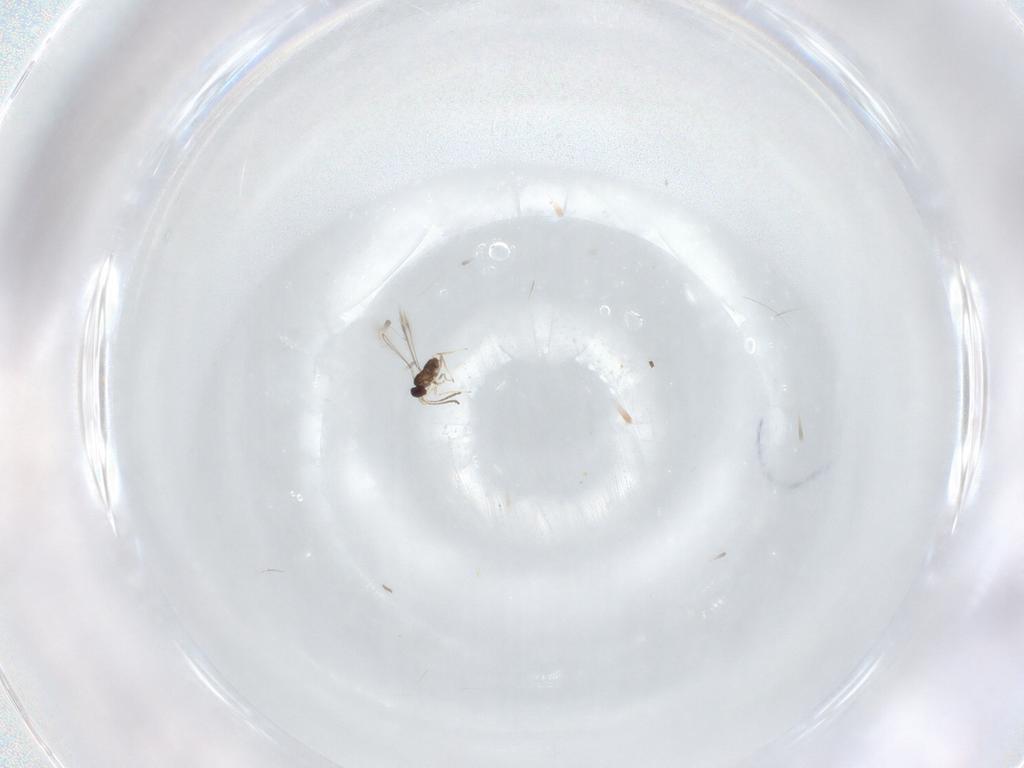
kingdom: Animalia
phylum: Arthropoda
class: Insecta
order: Hymenoptera
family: Mymaridae
